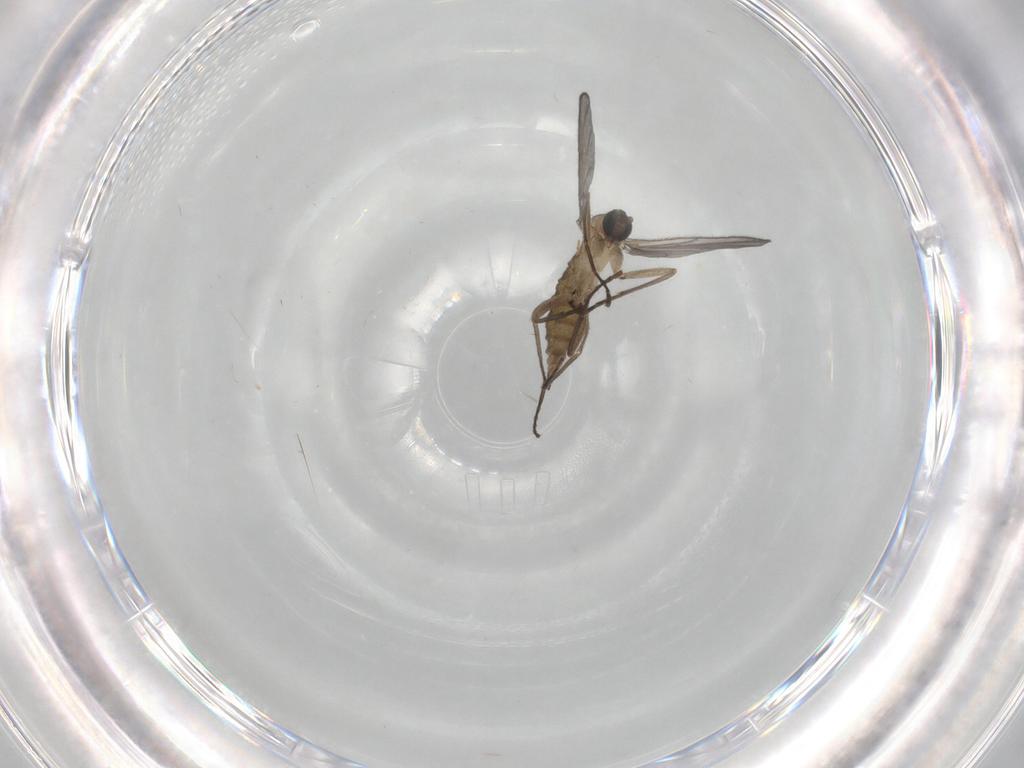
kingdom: Animalia
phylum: Arthropoda
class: Insecta
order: Diptera
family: Sciaridae
